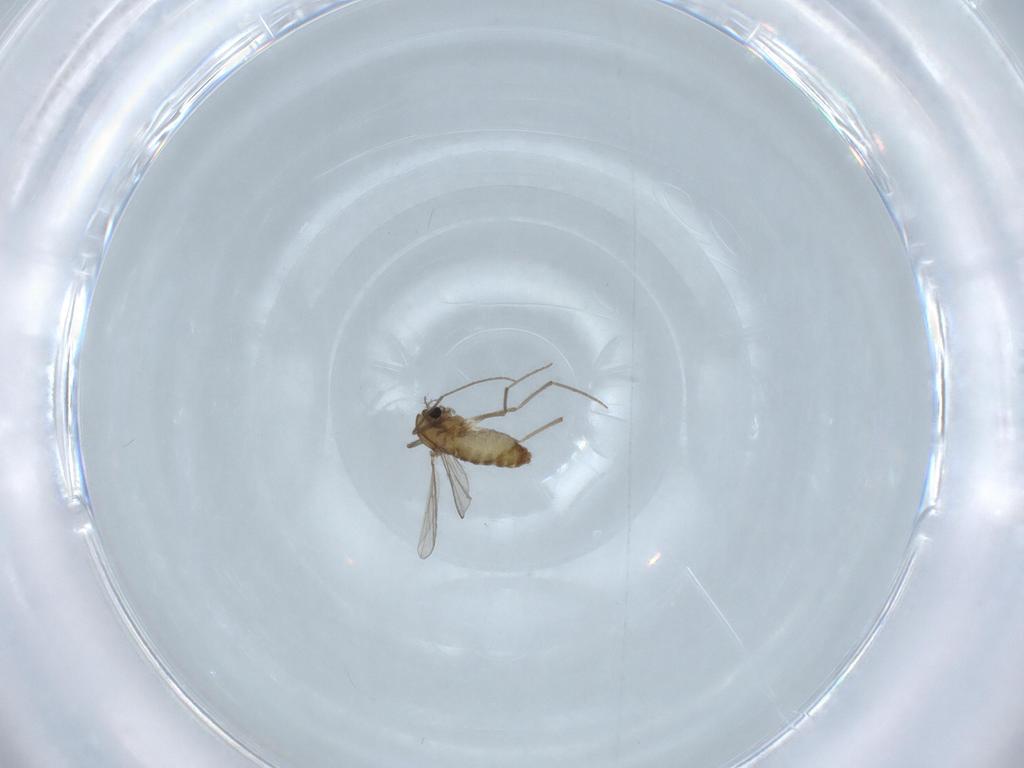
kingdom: Animalia
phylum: Arthropoda
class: Insecta
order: Diptera
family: Chironomidae
